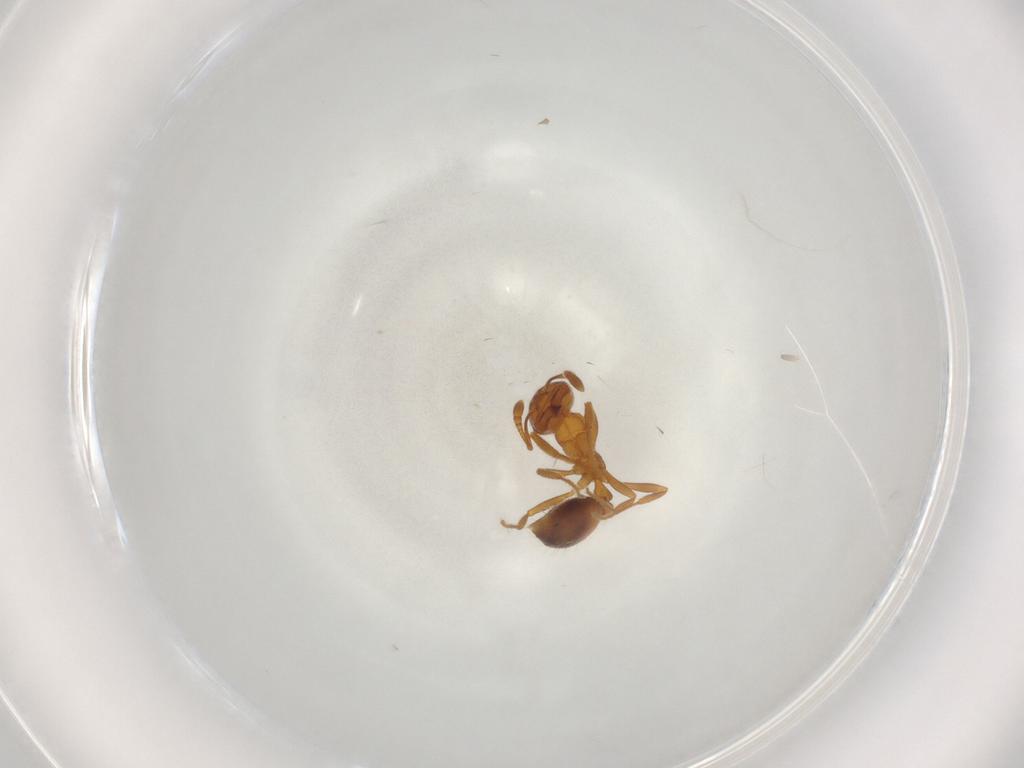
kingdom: Animalia
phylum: Arthropoda
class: Insecta
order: Hymenoptera
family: Formicidae
